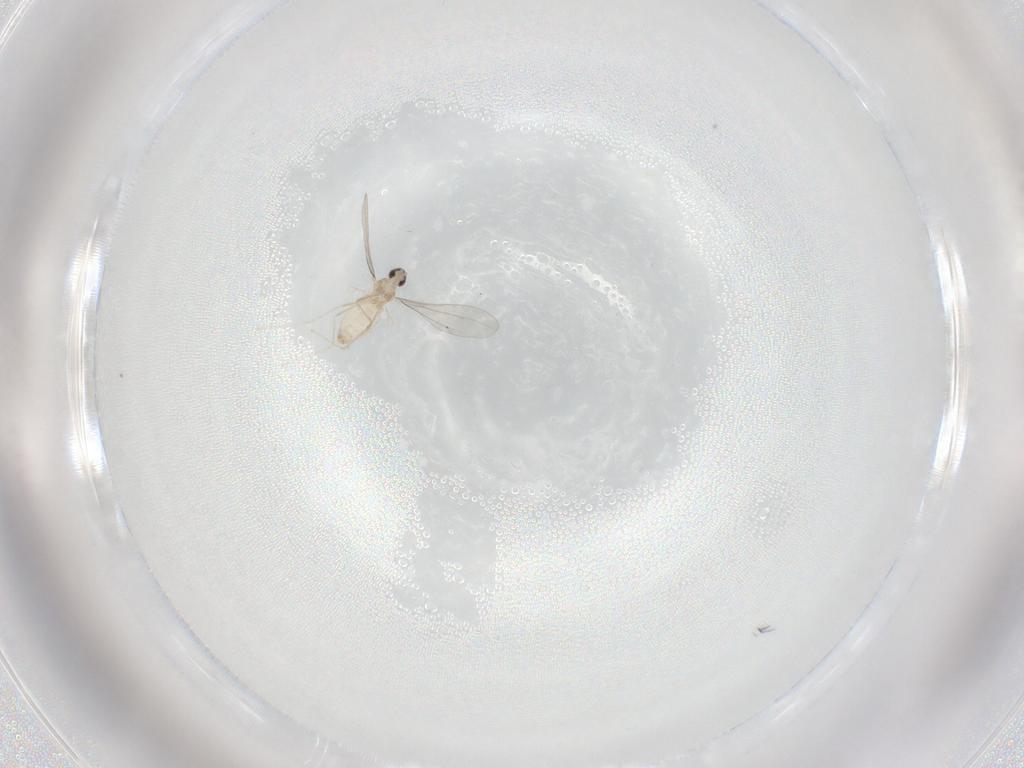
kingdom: Animalia
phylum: Arthropoda
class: Insecta
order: Diptera
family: Cecidomyiidae
